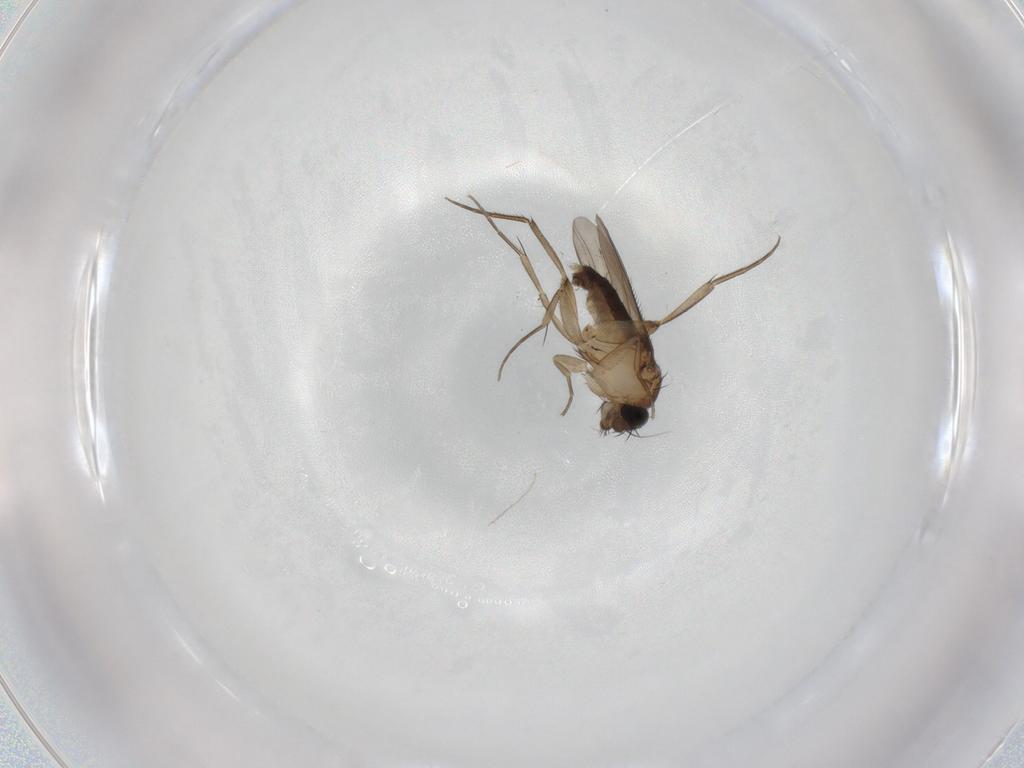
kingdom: Animalia
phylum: Arthropoda
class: Insecta
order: Diptera
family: Phoridae
